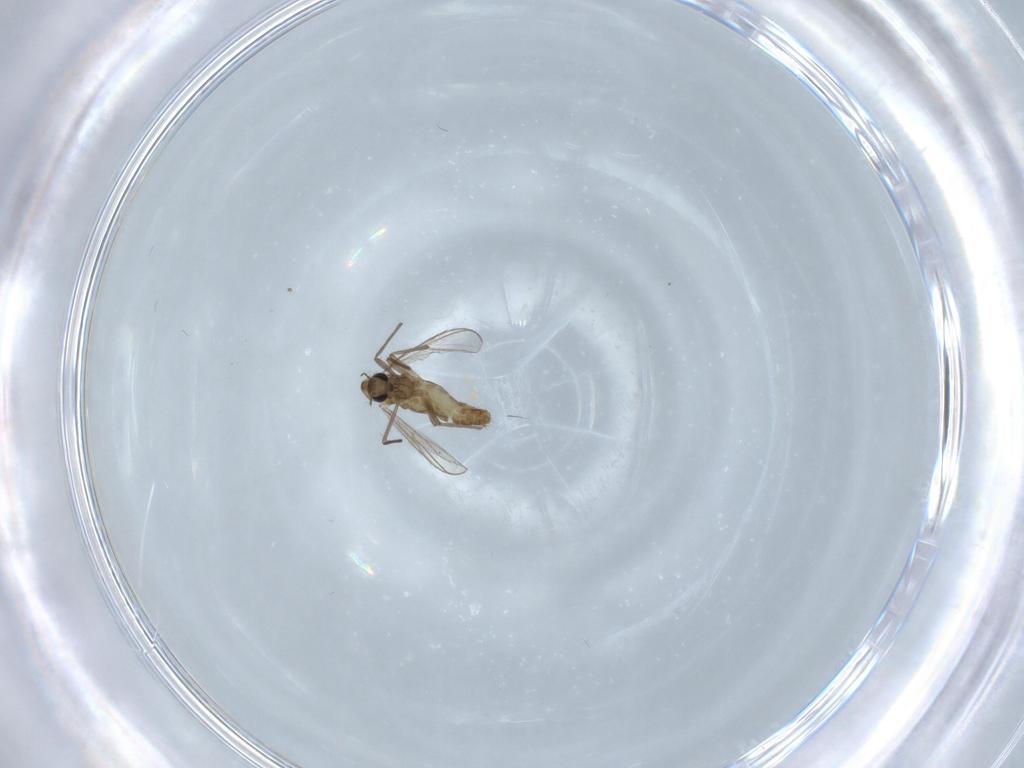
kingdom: Animalia
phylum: Arthropoda
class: Insecta
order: Diptera
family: Chironomidae
